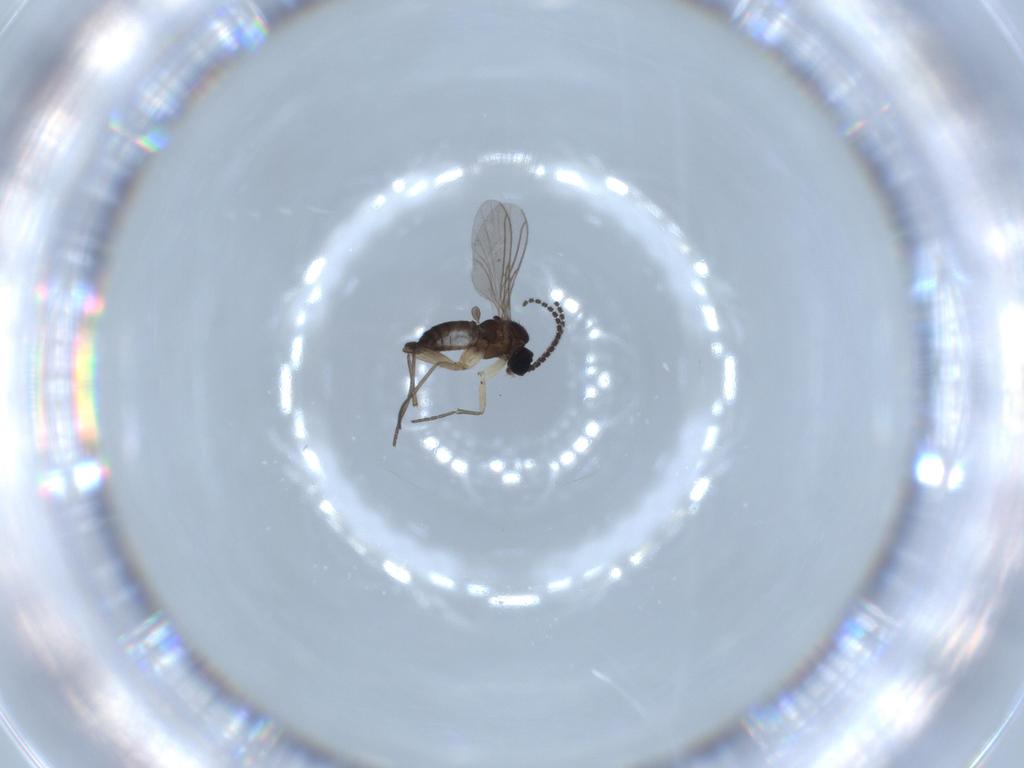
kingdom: Animalia
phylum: Arthropoda
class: Insecta
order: Diptera
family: Sciaridae
